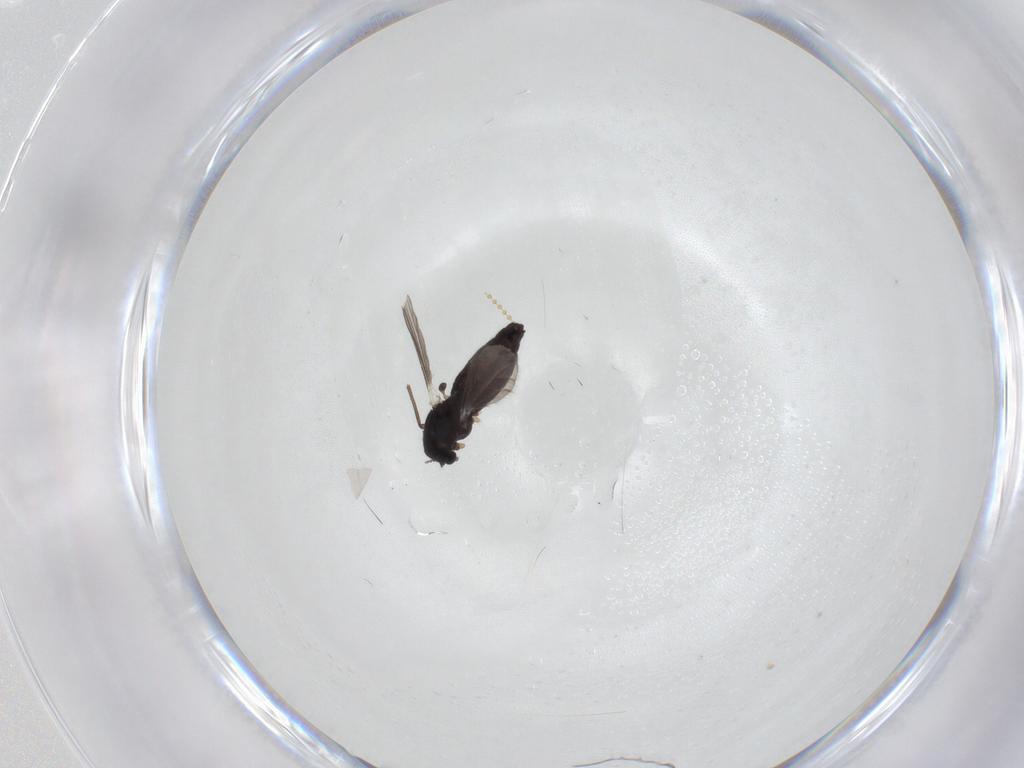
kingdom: Animalia
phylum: Arthropoda
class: Insecta
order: Diptera
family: Chironomidae
